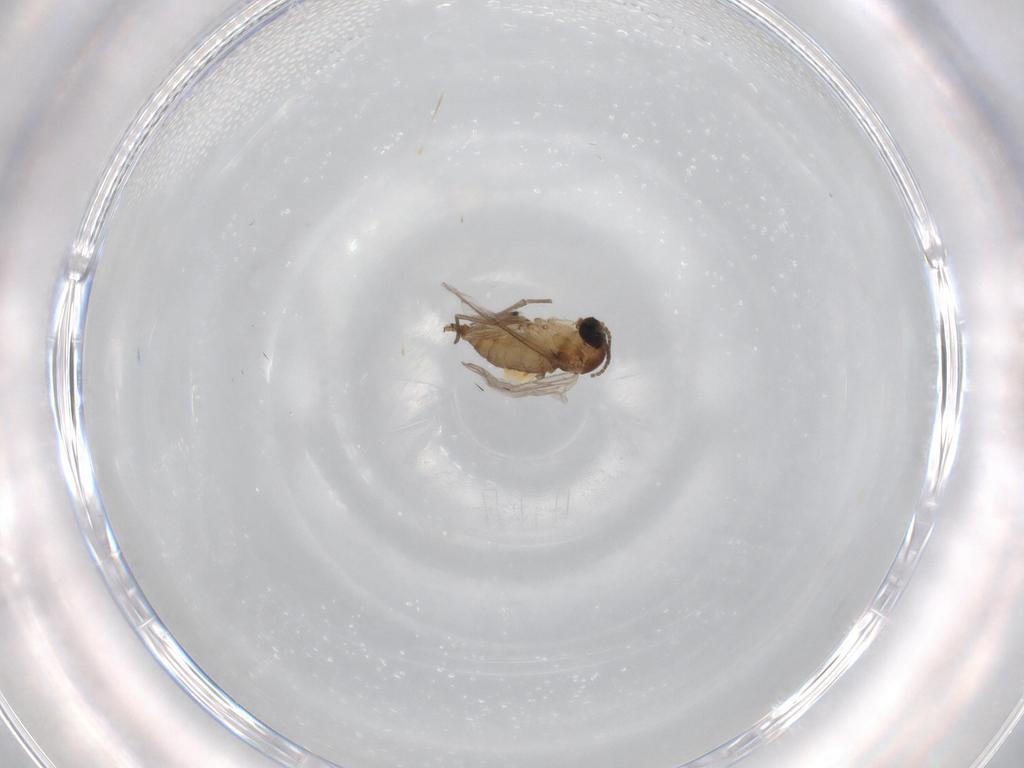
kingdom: Animalia
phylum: Arthropoda
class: Insecta
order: Diptera
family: Sciaridae
